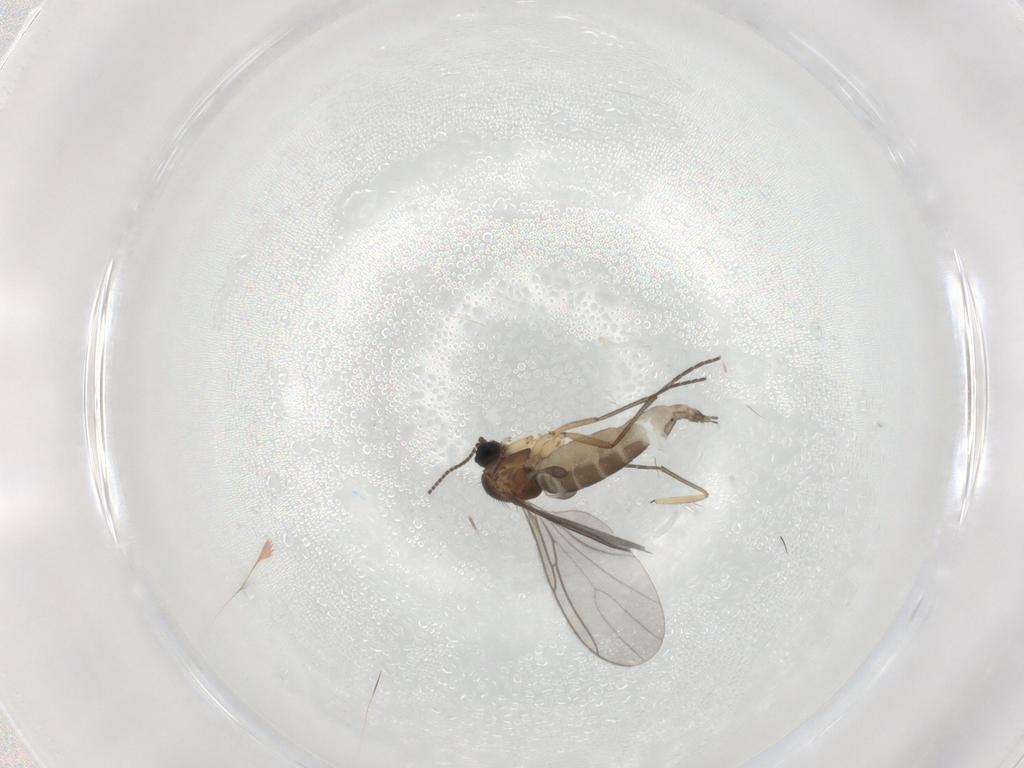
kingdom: Animalia
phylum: Arthropoda
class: Insecta
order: Diptera
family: Sciaridae
